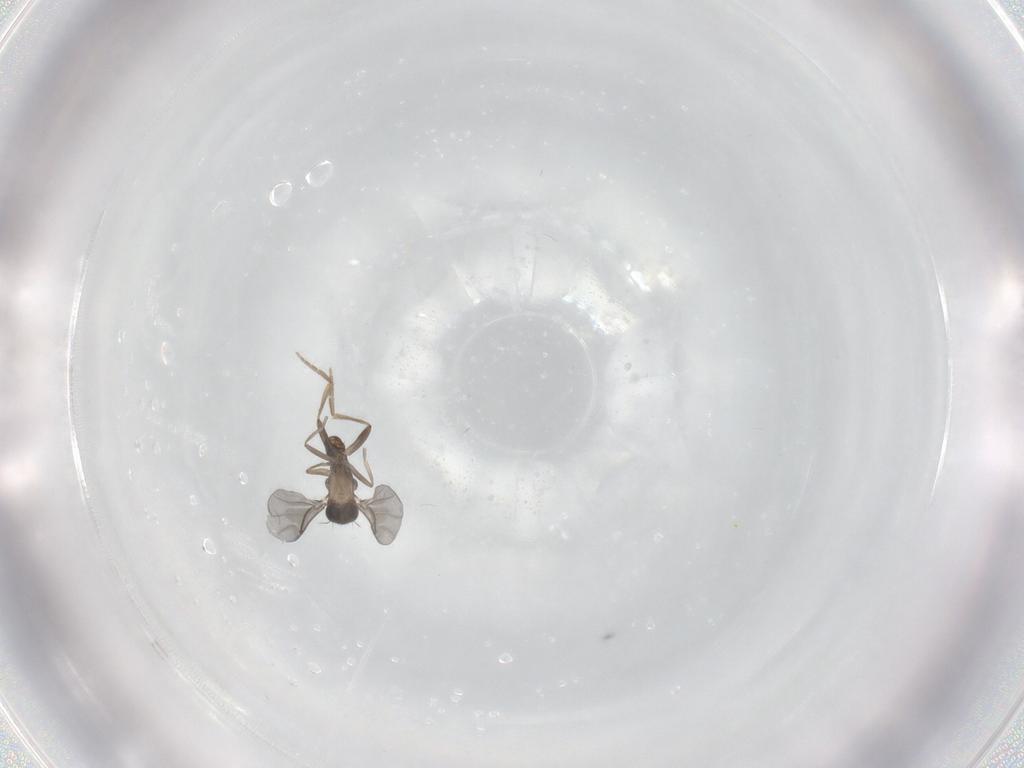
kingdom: Animalia
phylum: Arthropoda
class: Insecta
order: Diptera
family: Phoridae
